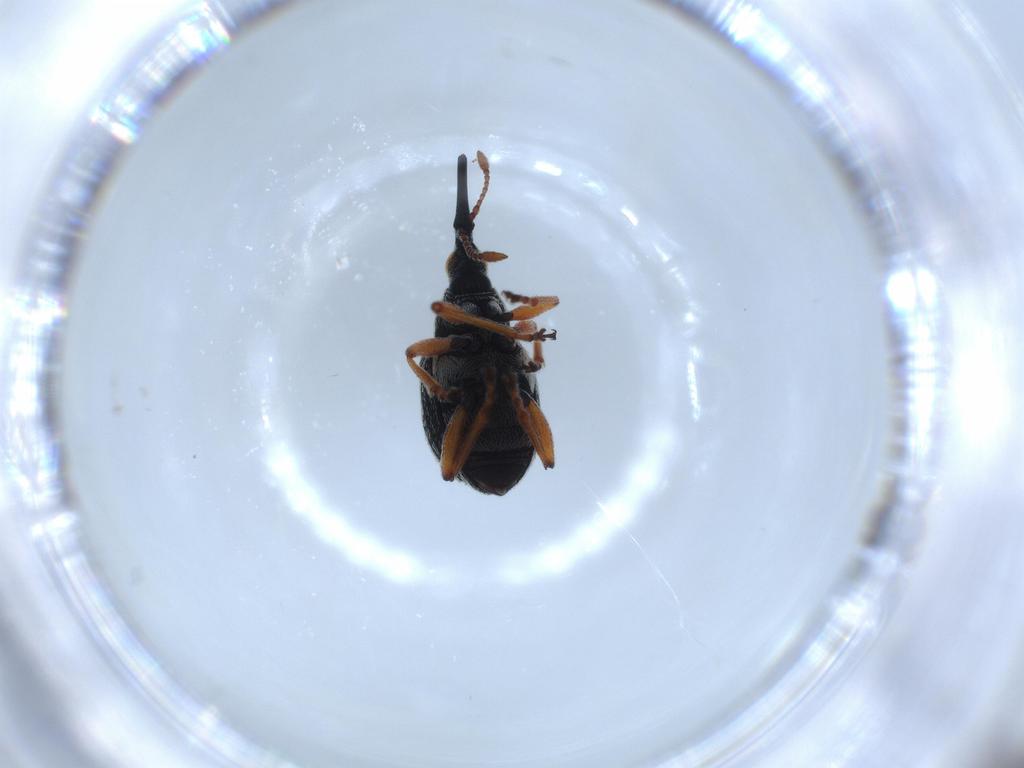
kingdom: Animalia
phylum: Arthropoda
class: Insecta
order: Coleoptera
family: Brentidae
